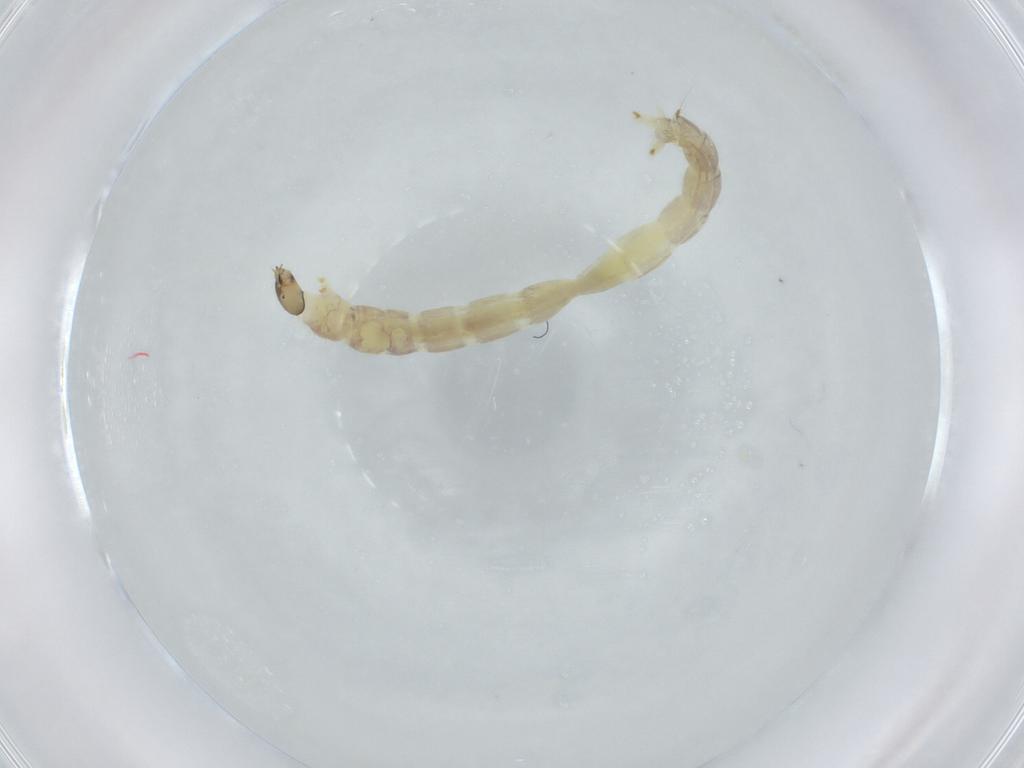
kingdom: Animalia
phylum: Arthropoda
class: Insecta
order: Diptera
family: Chironomidae
